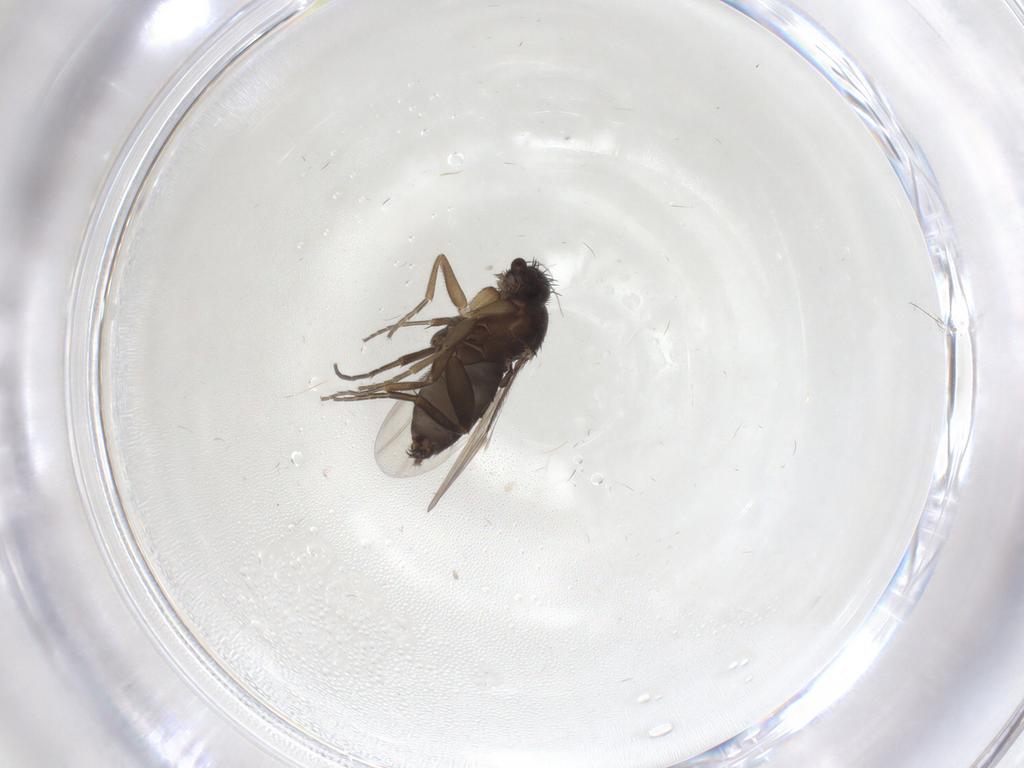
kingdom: Animalia
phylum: Arthropoda
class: Insecta
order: Diptera
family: Phoridae
